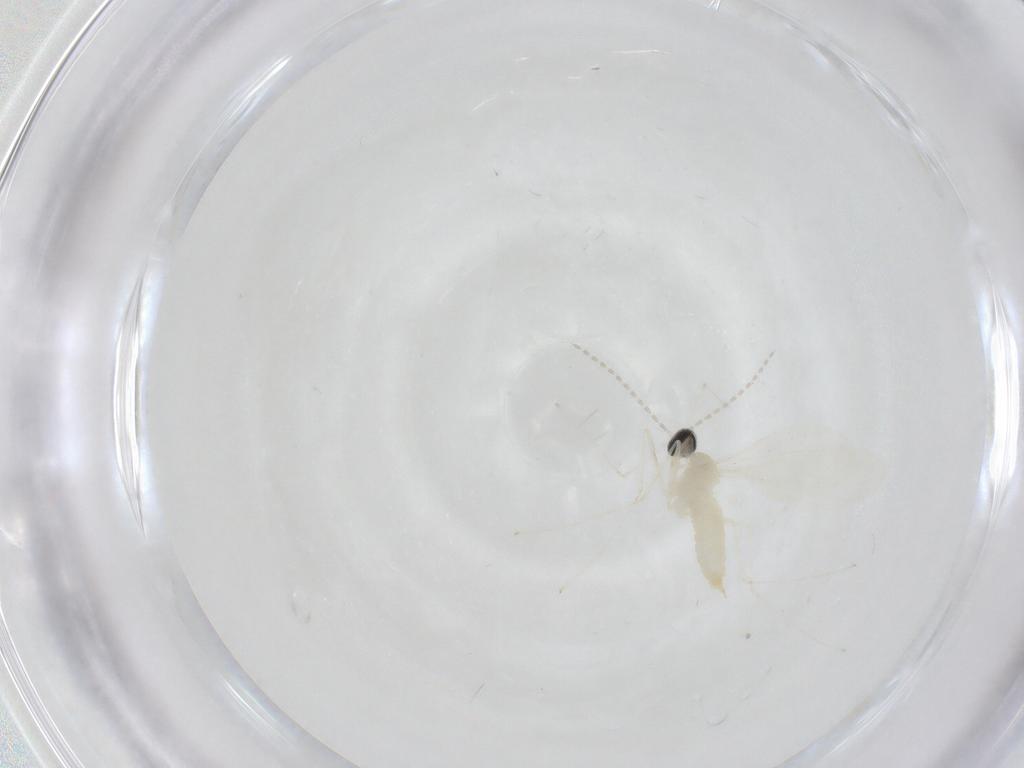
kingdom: Animalia
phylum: Arthropoda
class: Insecta
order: Diptera
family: Cecidomyiidae
